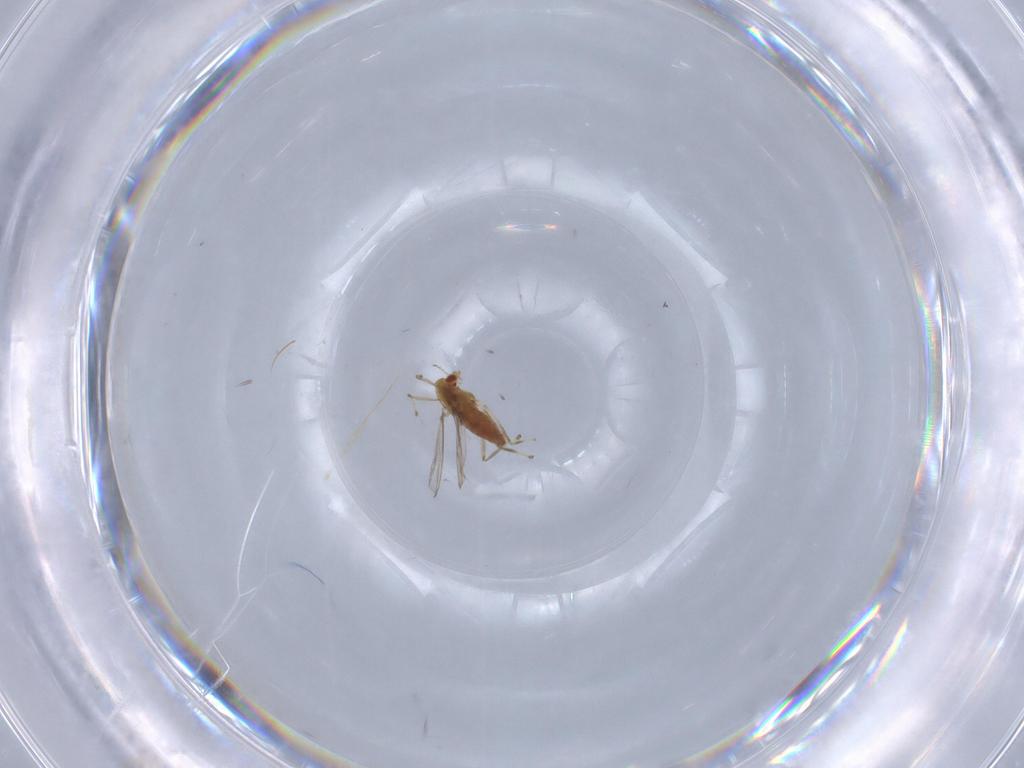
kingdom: Animalia
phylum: Arthropoda
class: Insecta
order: Diptera
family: Chironomidae
